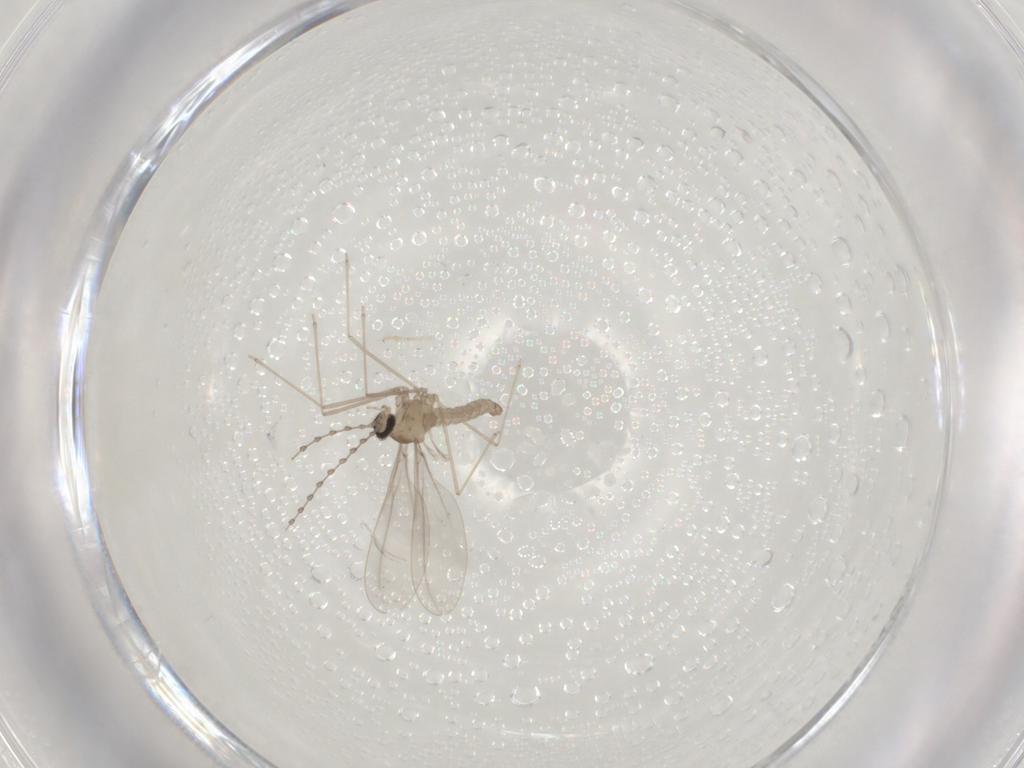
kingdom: Animalia
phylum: Arthropoda
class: Insecta
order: Diptera
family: Cecidomyiidae
